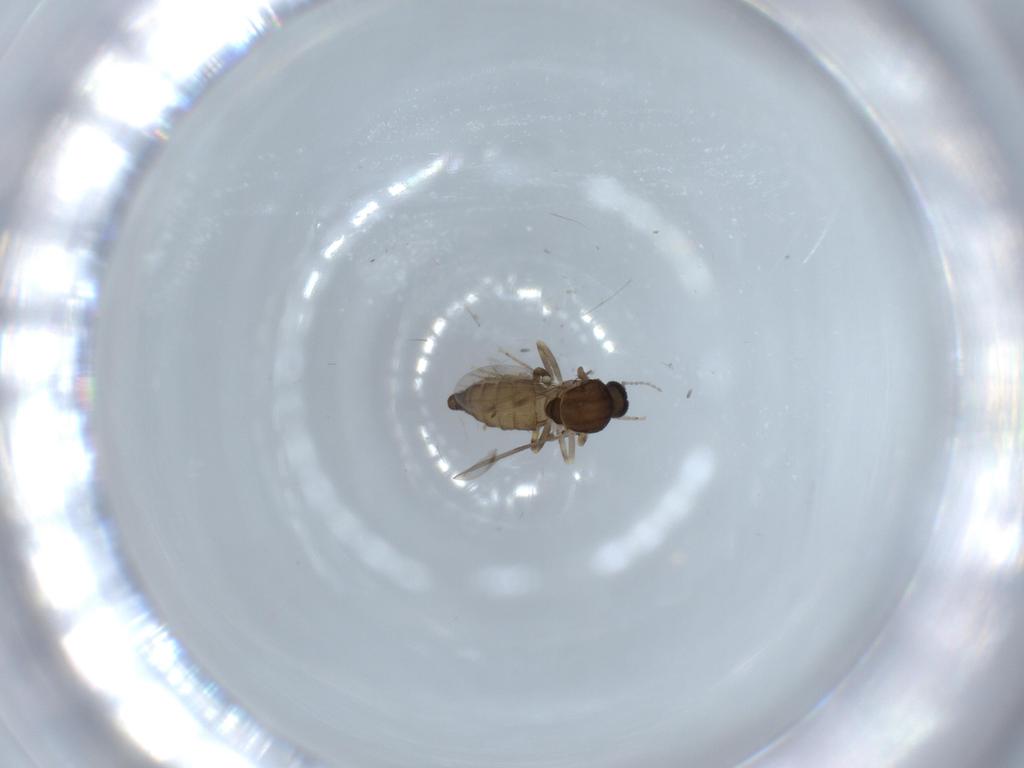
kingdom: Animalia
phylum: Arthropoda
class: Insecta
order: Diptera
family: Ceratopogonidae
